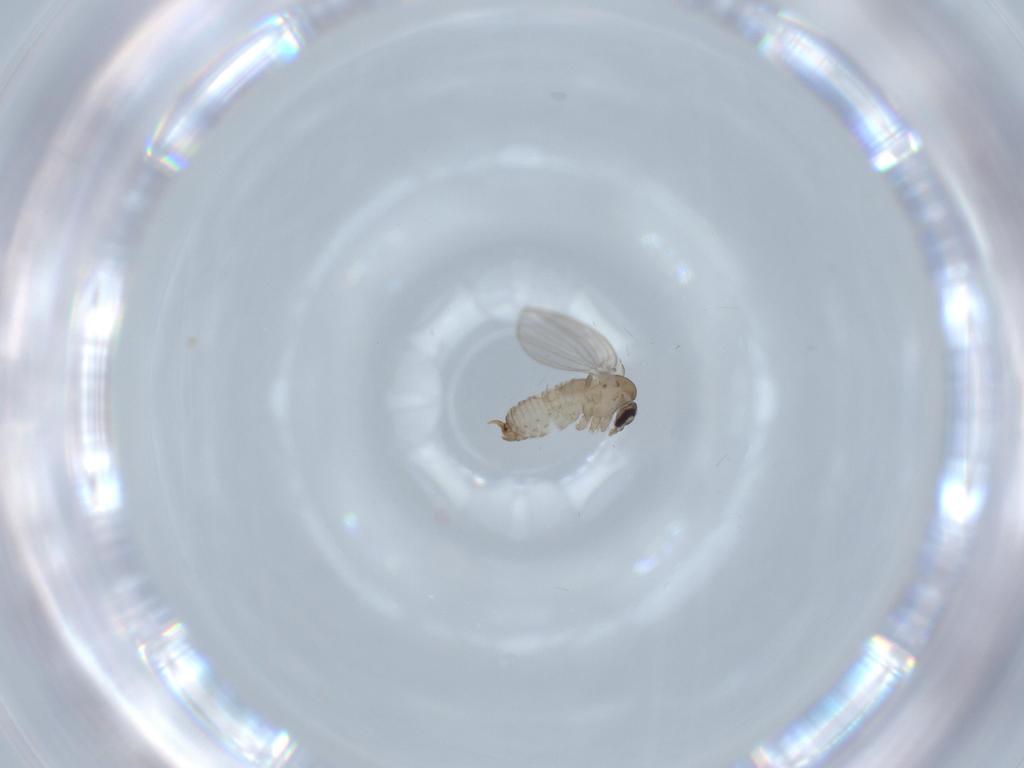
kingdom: Animalia
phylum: Arthropoda
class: Insecta
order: Diptera
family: Psychodidae
